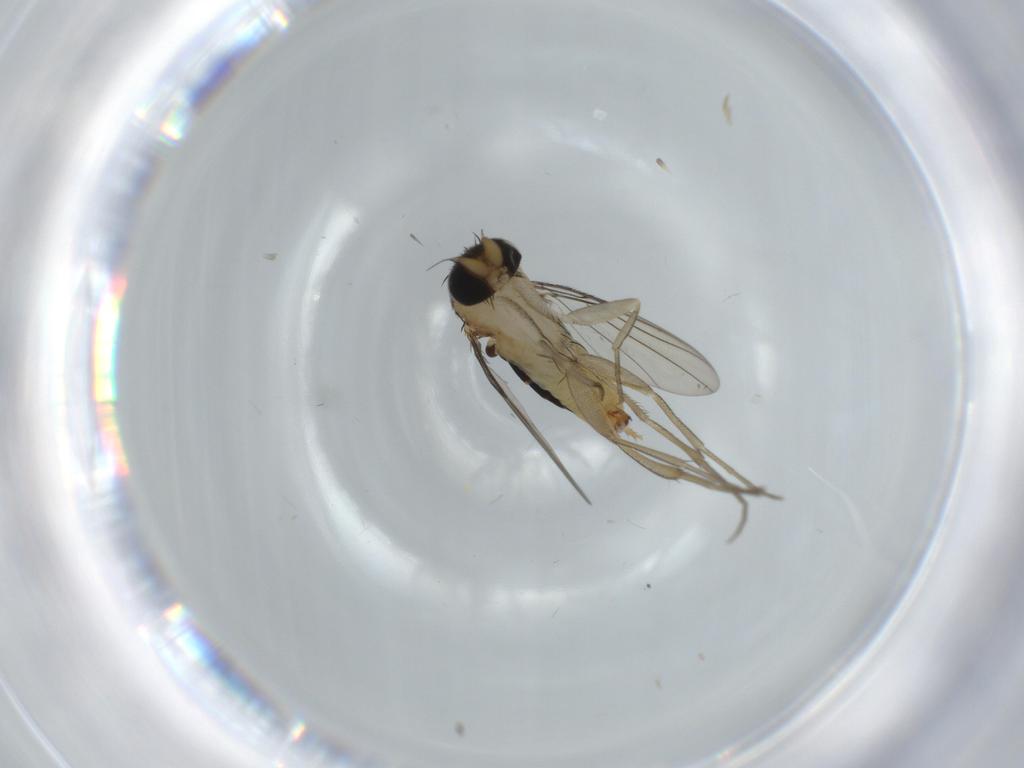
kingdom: Animalia
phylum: Arthropoda
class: Insecta
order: Diptera
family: Phoridae
